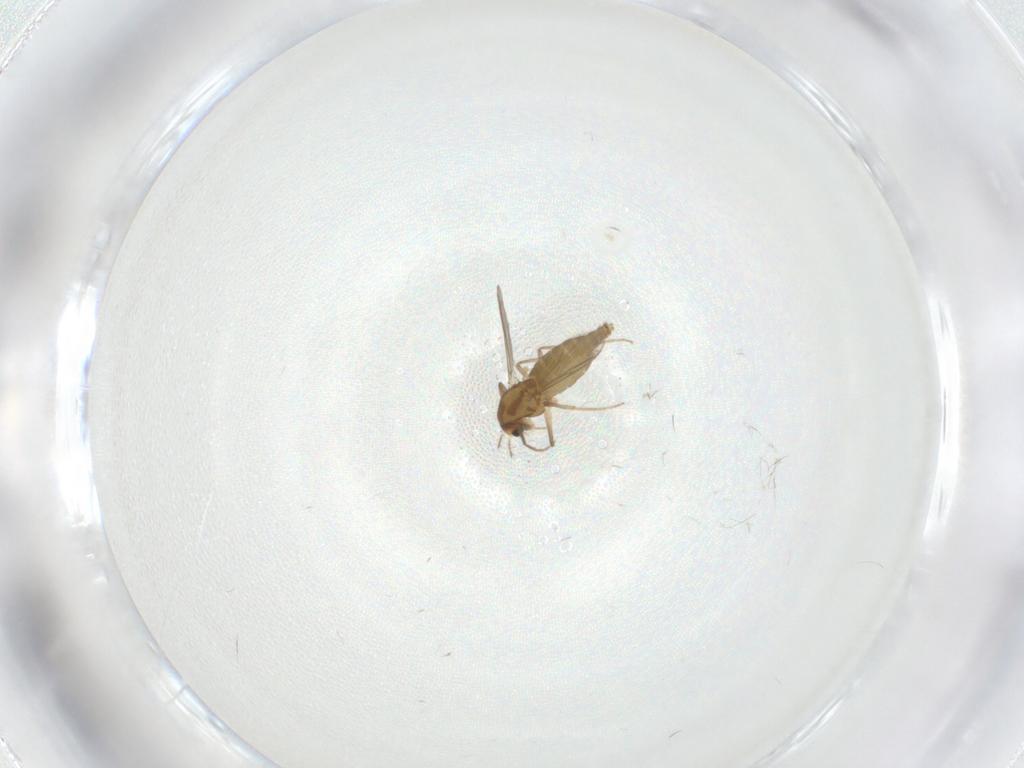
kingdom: Animalia
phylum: Arthropoda
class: Insecta
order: Diptera
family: Chironomidae
